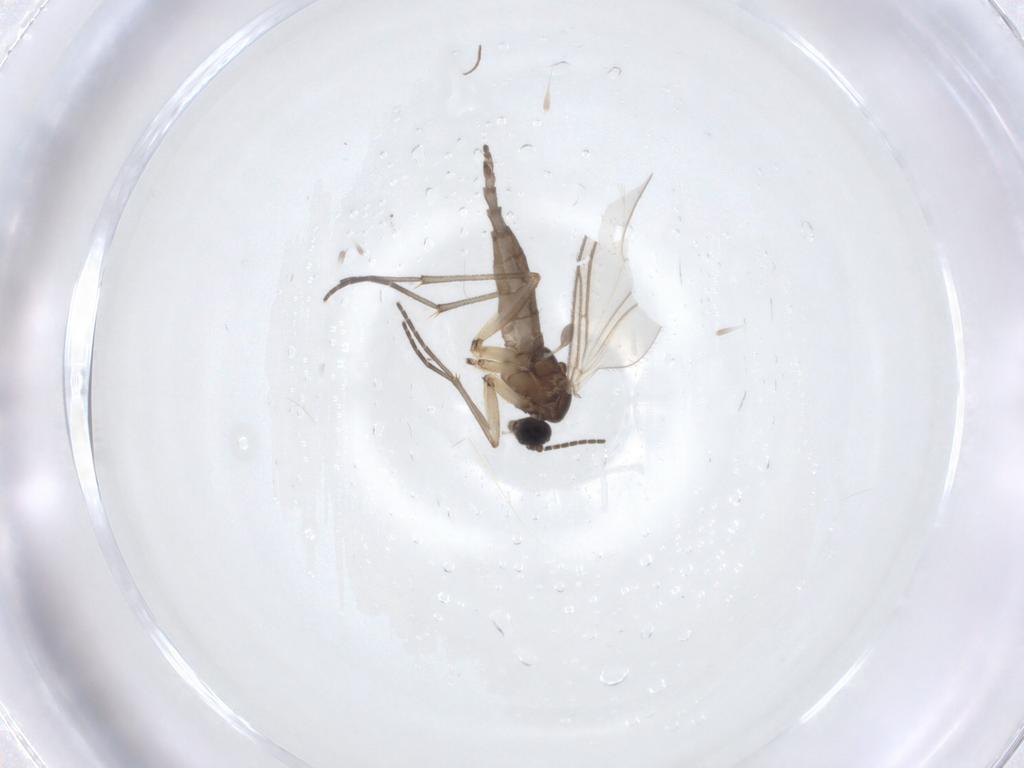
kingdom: Animalia
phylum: Arthropoda
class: Insecta
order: Diptera
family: Sciaridae
